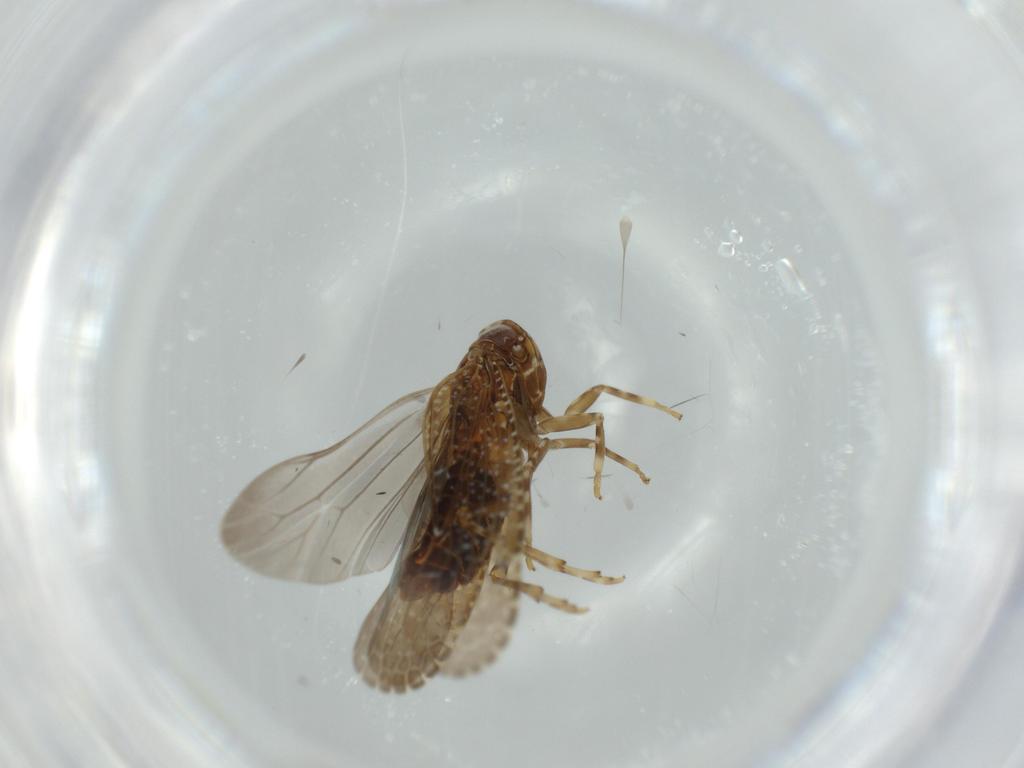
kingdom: Animalia
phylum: Arthropoda
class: Insecta
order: Hemiptera
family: Achilidae
